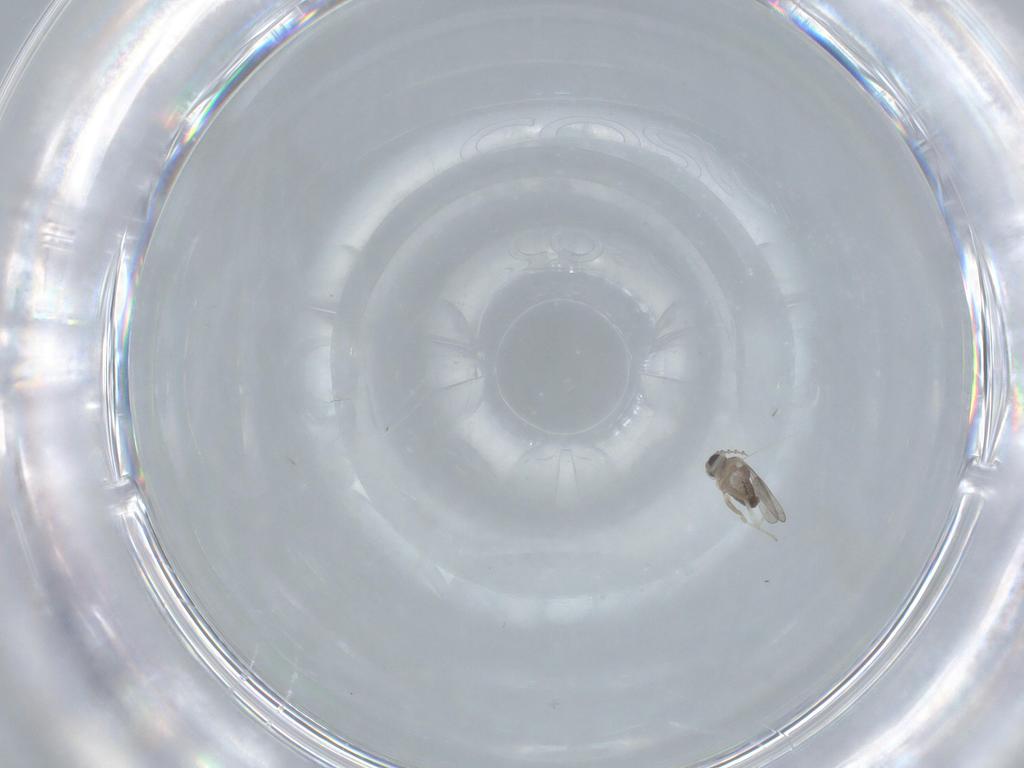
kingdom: Animalia
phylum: Arthropoda
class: Insecta
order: Diptera
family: Cecidomyiidae
